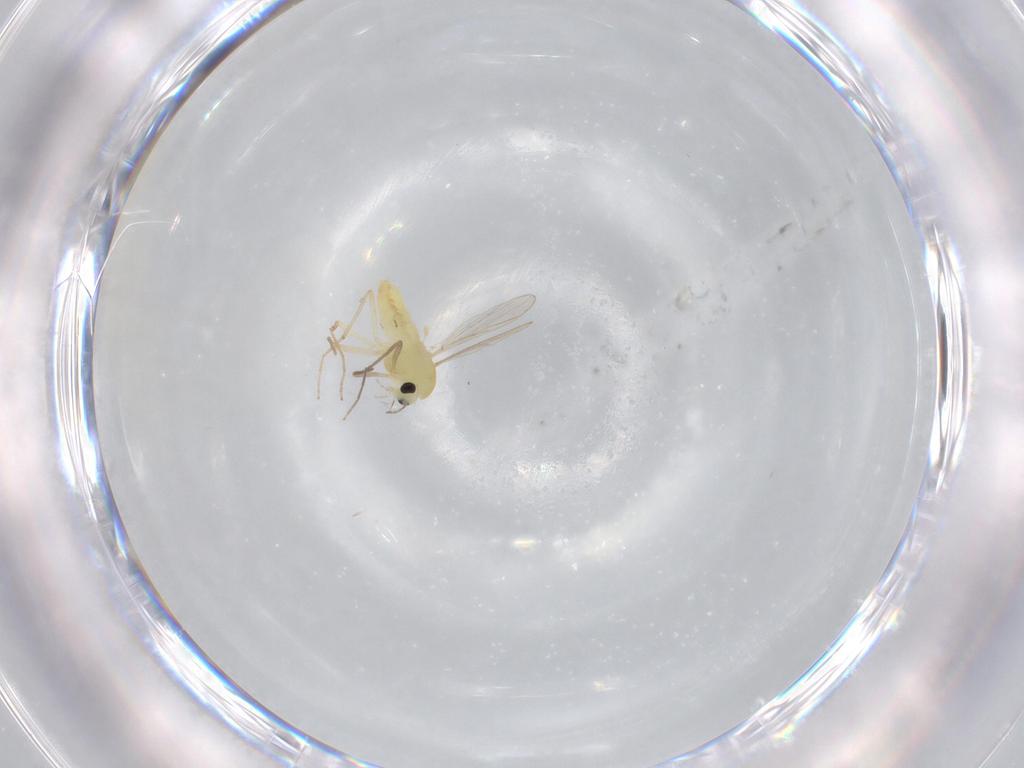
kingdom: Animalia
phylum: Arthropoda
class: Insecta
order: Diptera
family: Chironomidae
